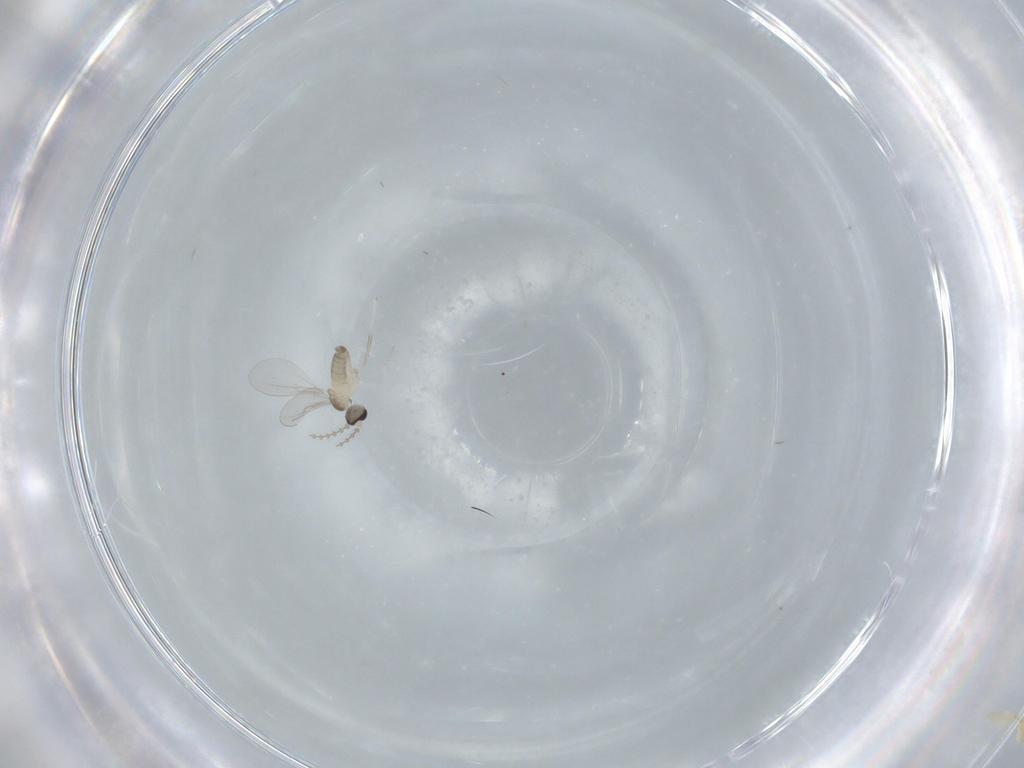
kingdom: Animalia
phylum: Arthropoda
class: Insecta
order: Diptera
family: Cecidomyiidae
